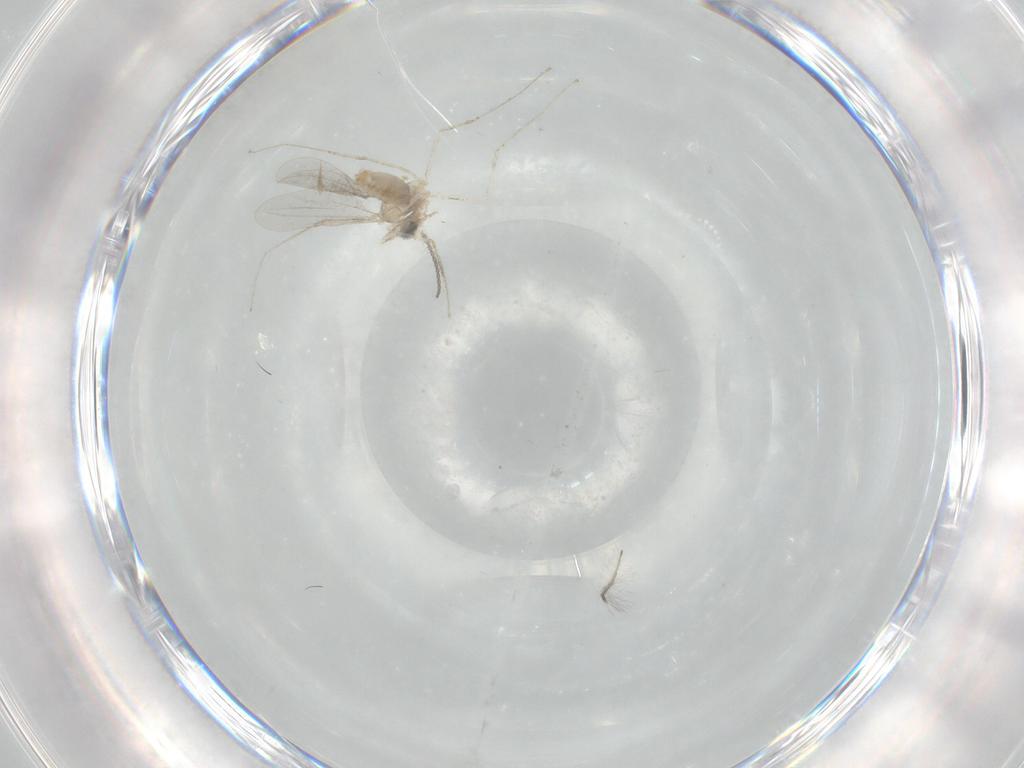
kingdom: Animalia
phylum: Arthropoda
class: Insecta
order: Diptera
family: Cecidomyiidae
